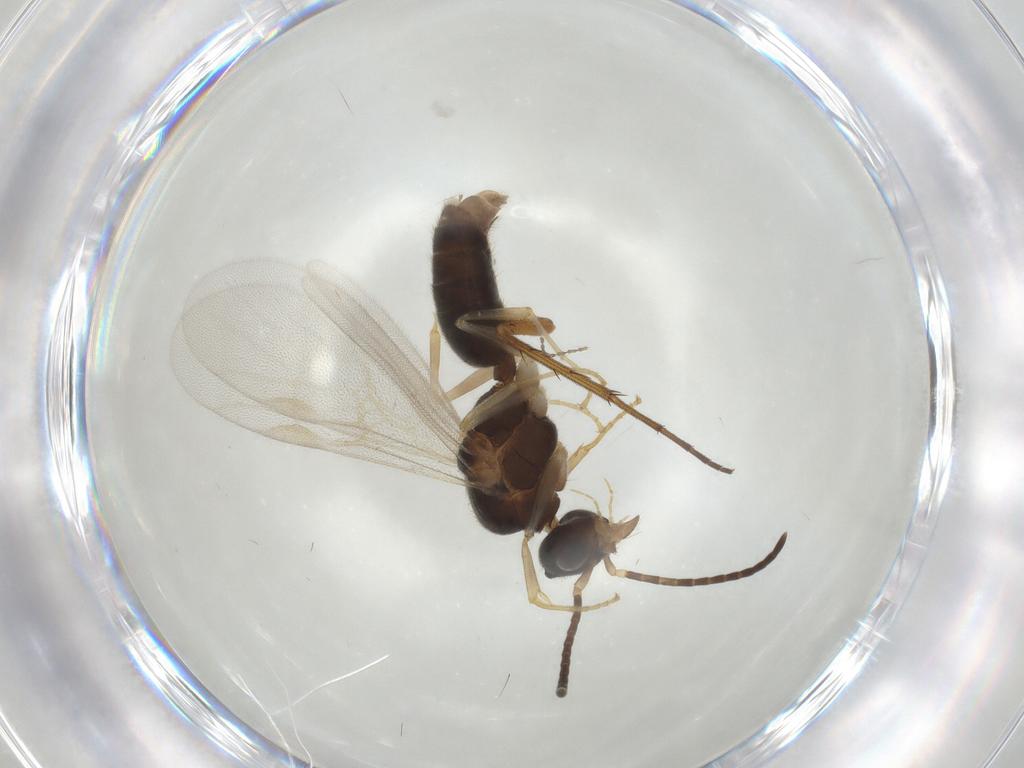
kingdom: Animalia
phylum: Arthropoda
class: Insecta
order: Hymenoptera
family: Formicidae
